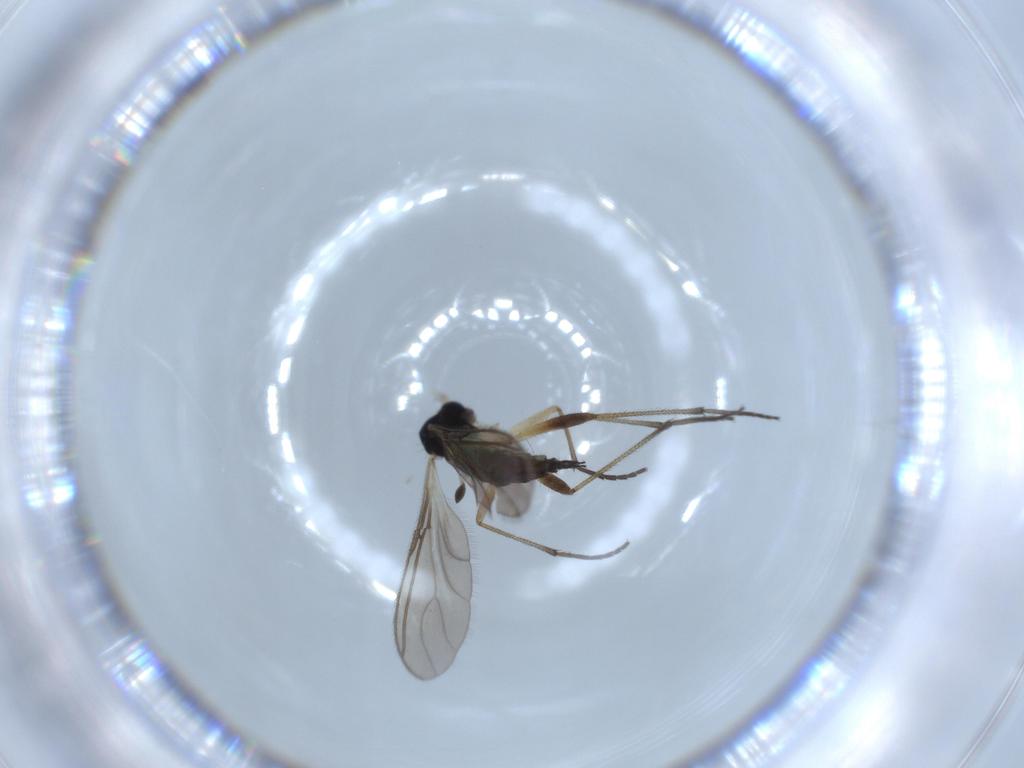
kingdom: Animalia
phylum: Arthropoda
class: Insecta
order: Diptera
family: Sciaridae
